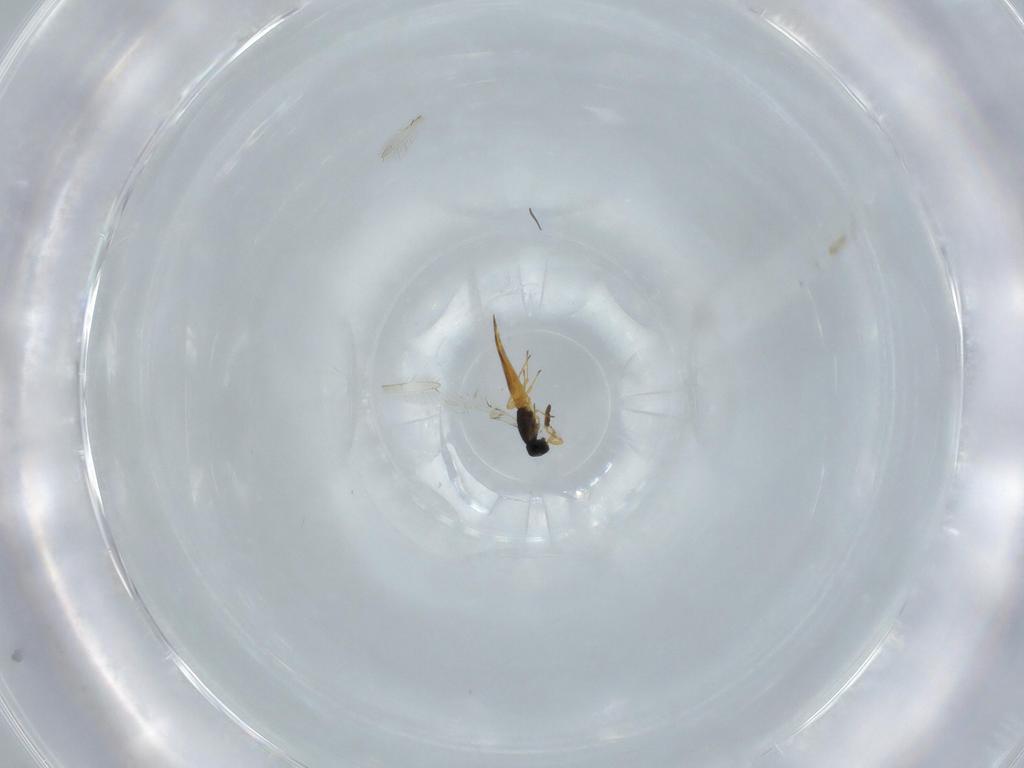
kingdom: Animalia
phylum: Arthropoda
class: Insecta
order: Hymenoptera
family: Scelionidae
